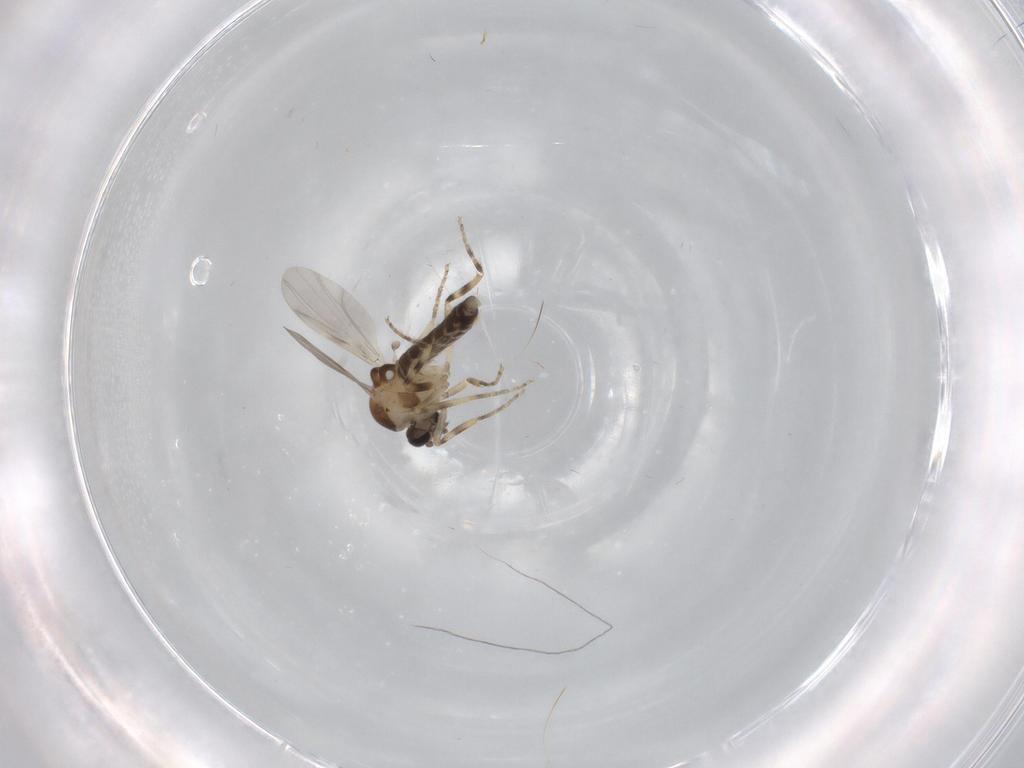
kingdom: Animalia
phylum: Arthropoda
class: Insecta
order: Diptera
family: Ceratopogonidae
